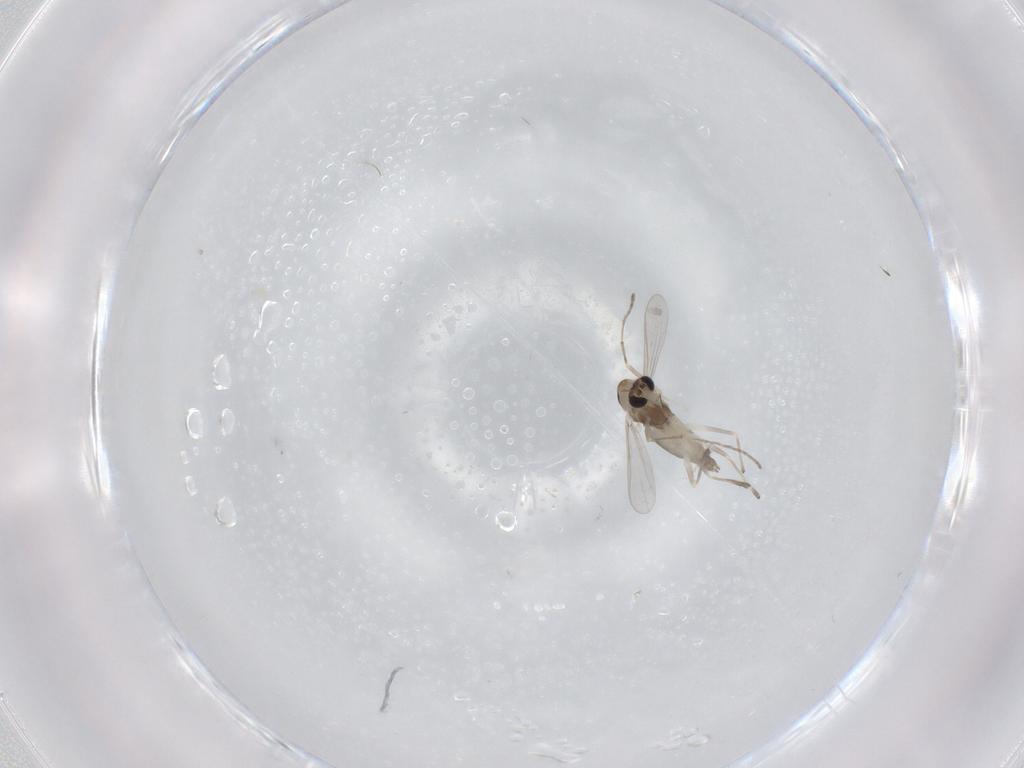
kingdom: Animalia
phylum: Arthropoda
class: Insecta
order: Diptera
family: Chironomidae
